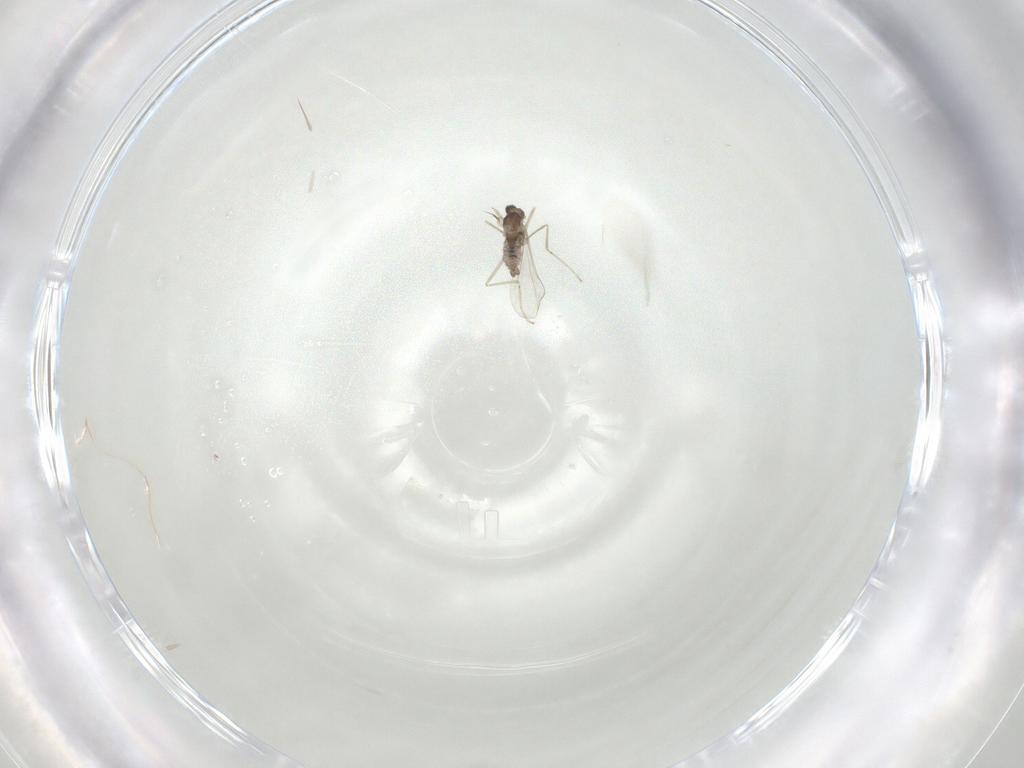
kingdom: Animalia
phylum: Arthropoda
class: Insecta
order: Diptera
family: Cecidomyiidae
